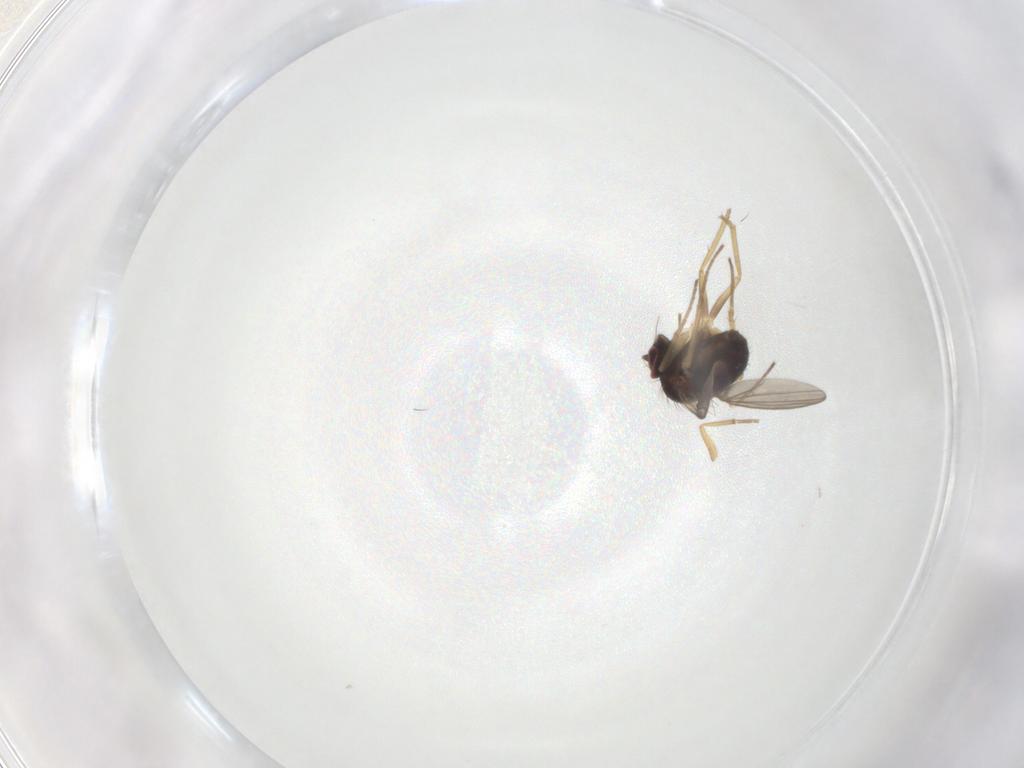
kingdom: Animalia
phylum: Arthropoda
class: Insecta
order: Diptera
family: Dolichopodidae
